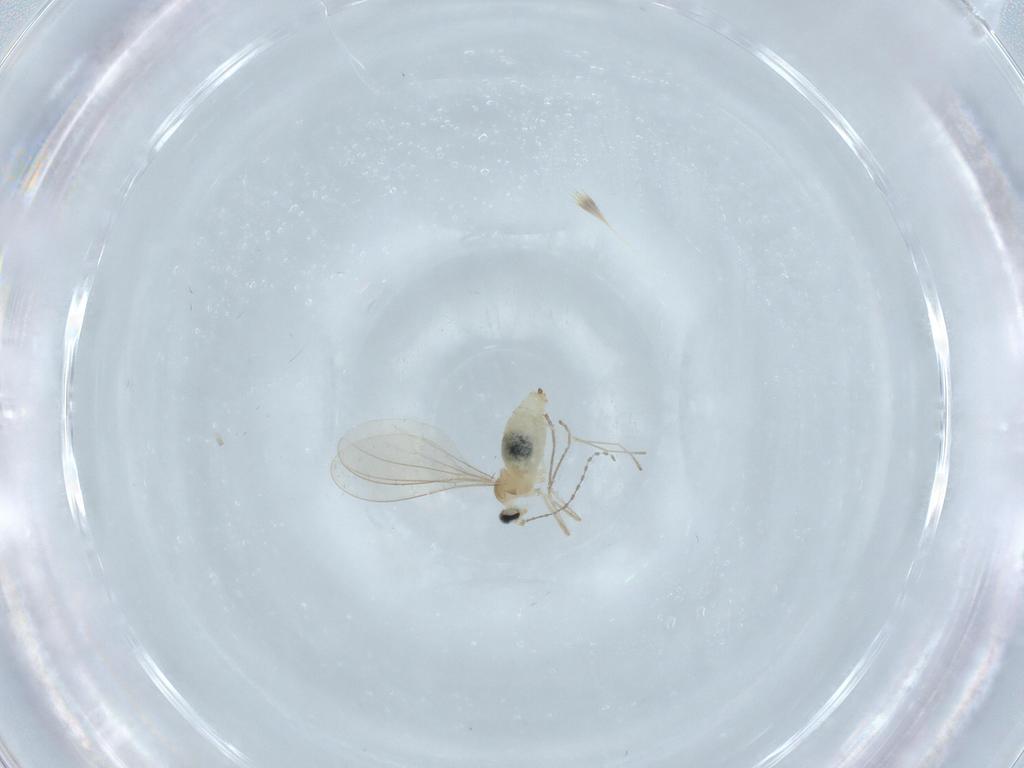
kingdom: Animalia
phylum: Arthropoda
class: Insecta
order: Diptera
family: Cecidomyiidae
